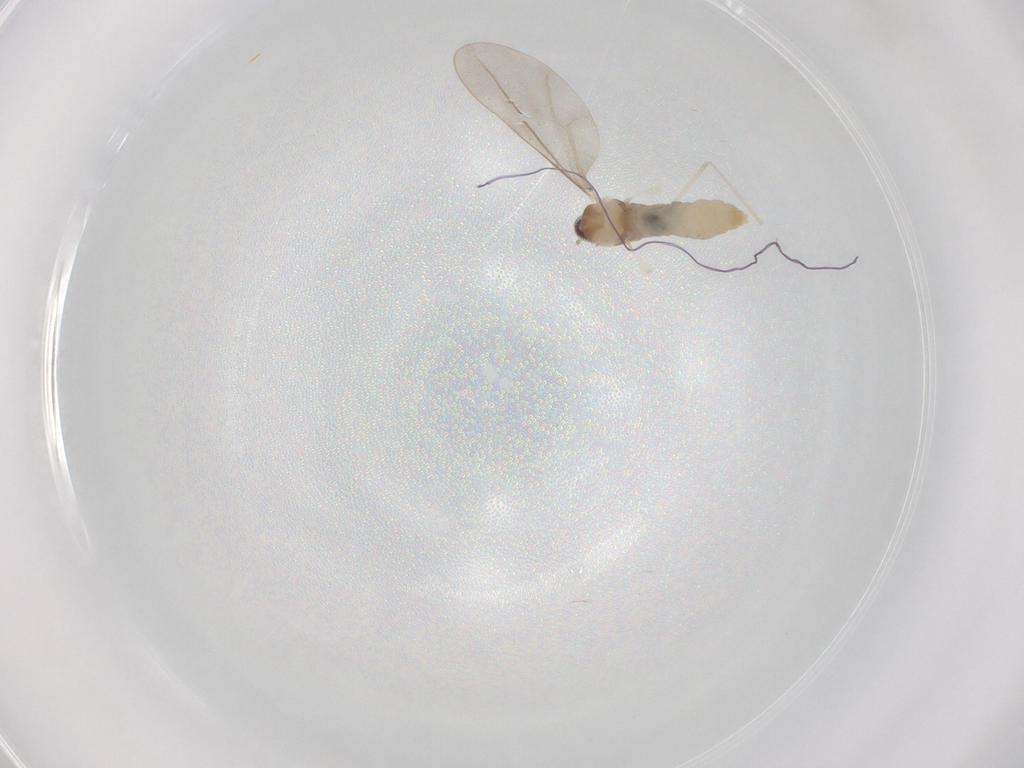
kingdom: Animalia
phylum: Arthropoda
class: Insecta
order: Diptera
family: Cecidomyiidae
